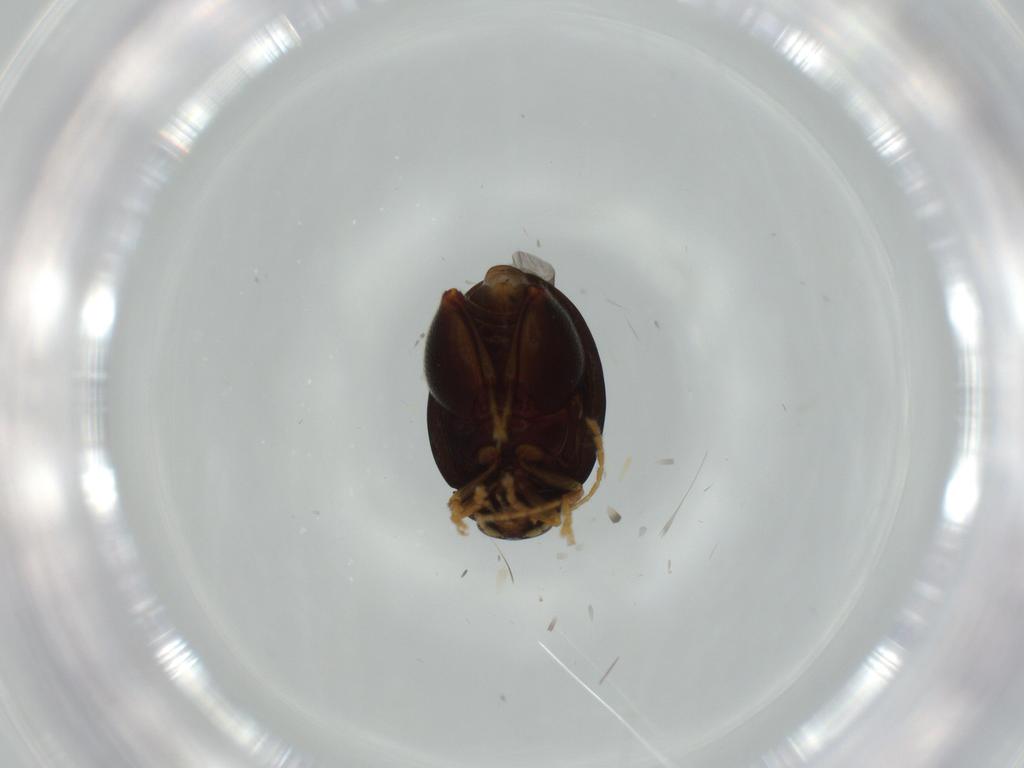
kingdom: Animalia
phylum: Arthropoda
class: Insecta
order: Coleoptera
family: Chrysomelidae
